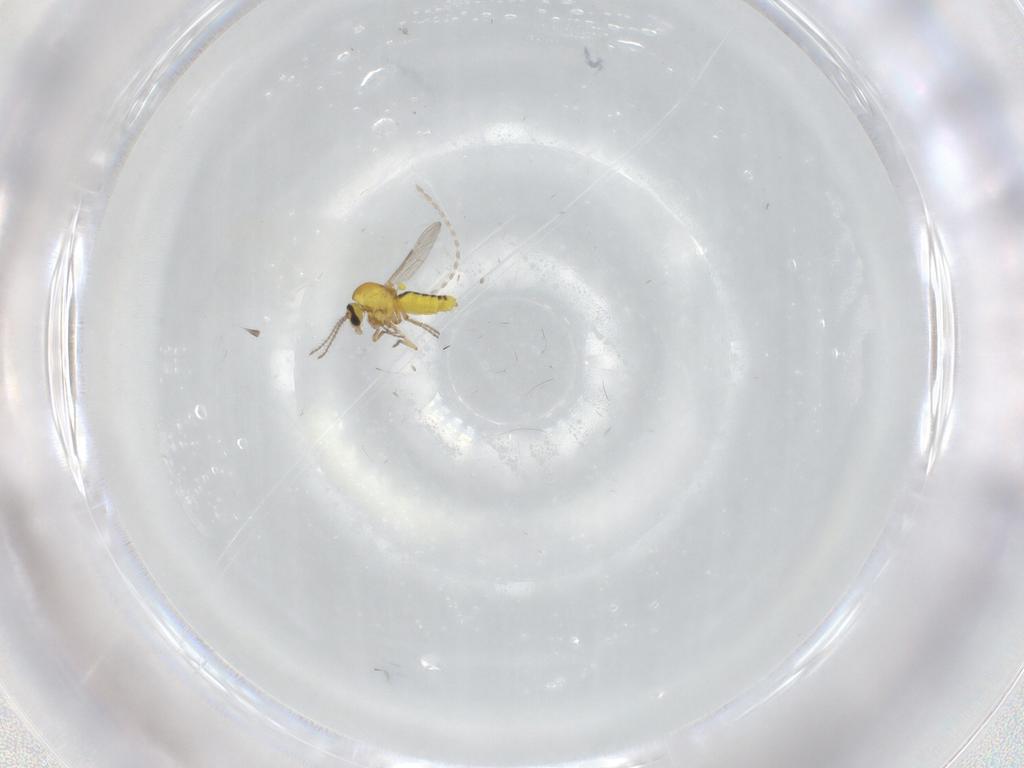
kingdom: Animalia
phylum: Arthropoda
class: Insecta
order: Diptera
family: Ceratopogonidae
